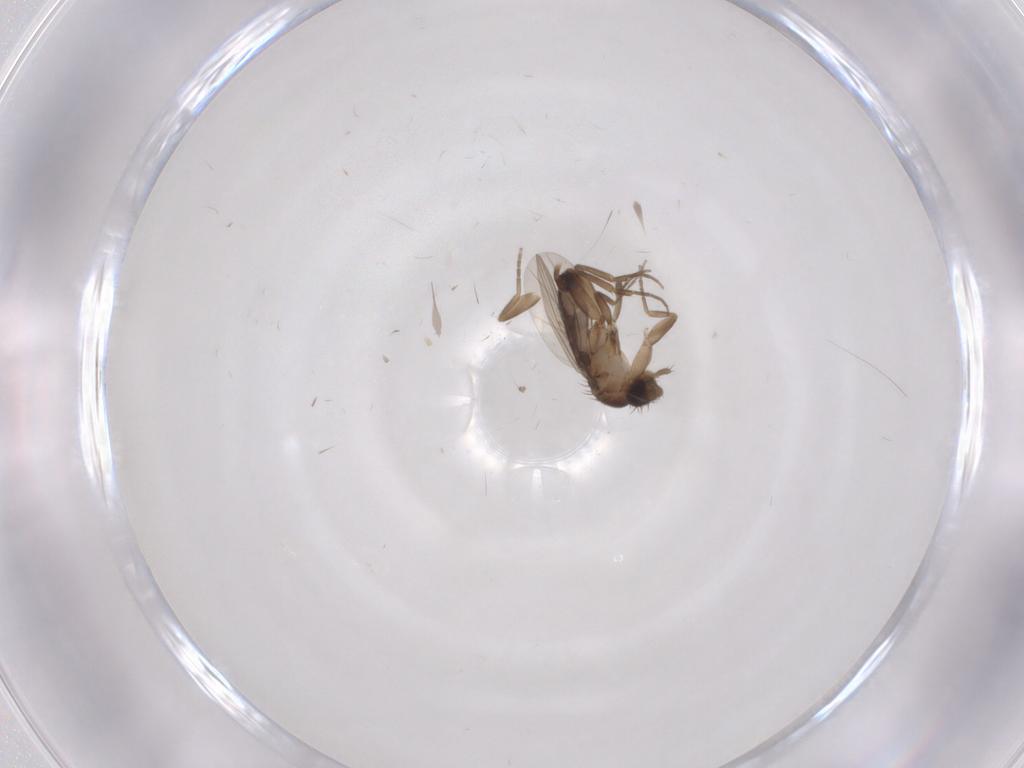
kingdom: Animalia
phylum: Arthropoda
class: Insecta
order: Diptera
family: Phoridae
